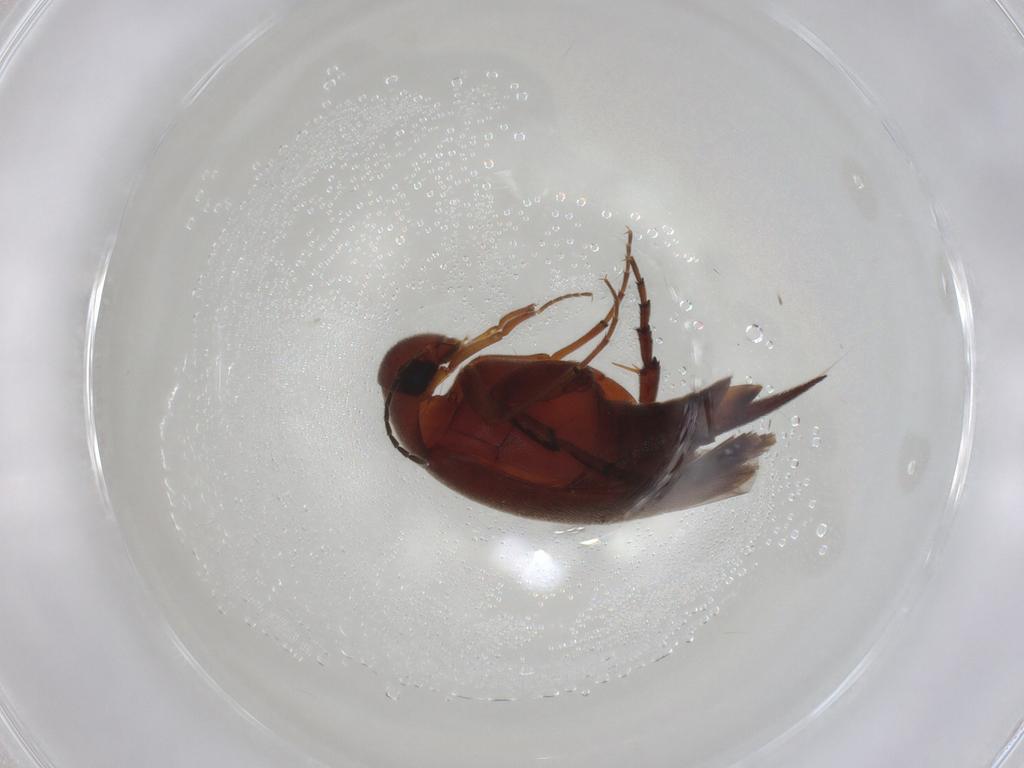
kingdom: Animalia
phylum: Arthropoda
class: Insecta
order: Coleoptera
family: Mordellidae
